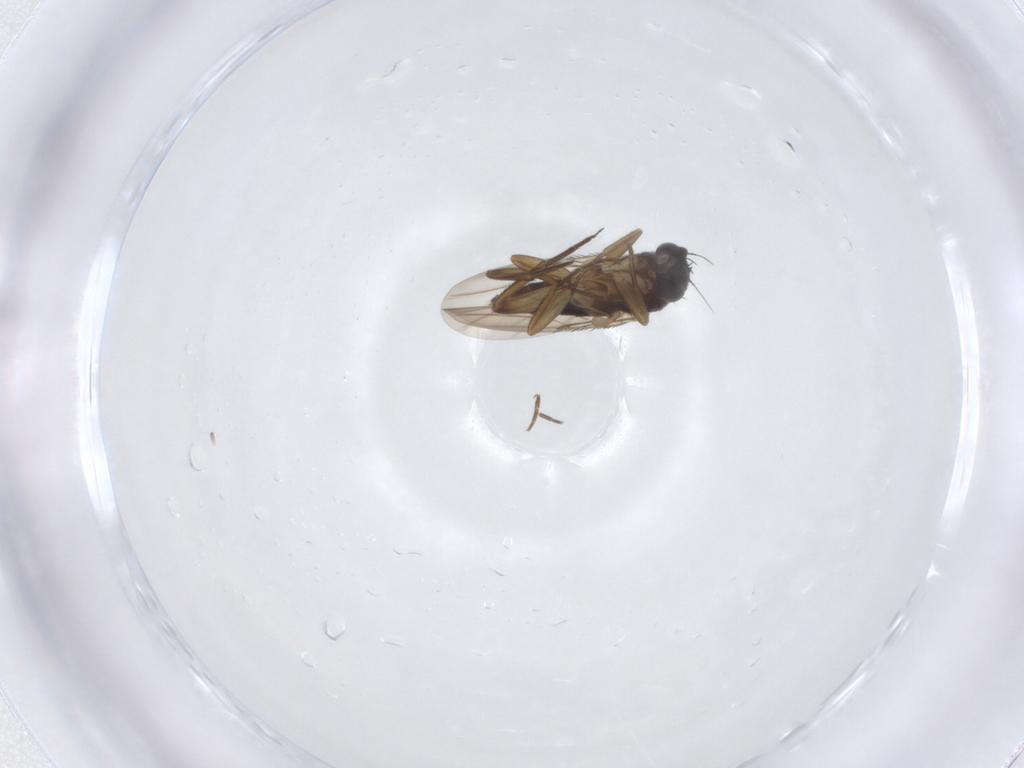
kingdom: Animalia
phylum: Arthropoda
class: Insecta
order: Diptera
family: Phoridae
